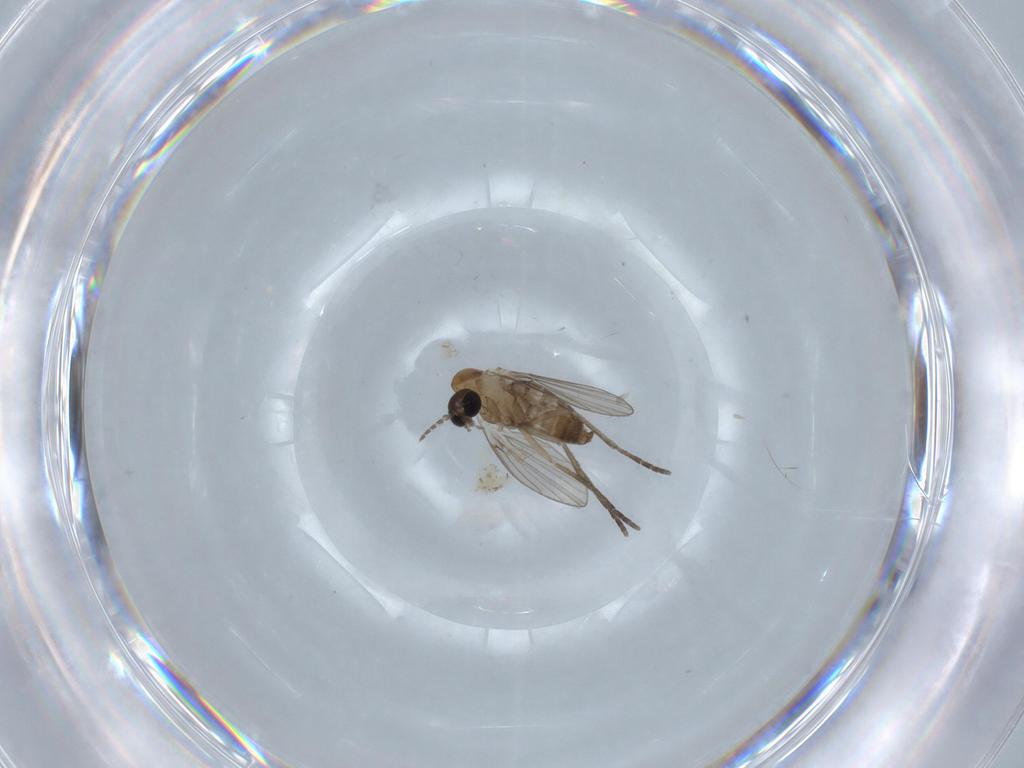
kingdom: Animalia
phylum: Arthropoda
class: Insecta
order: Diptera
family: Psychodidae
